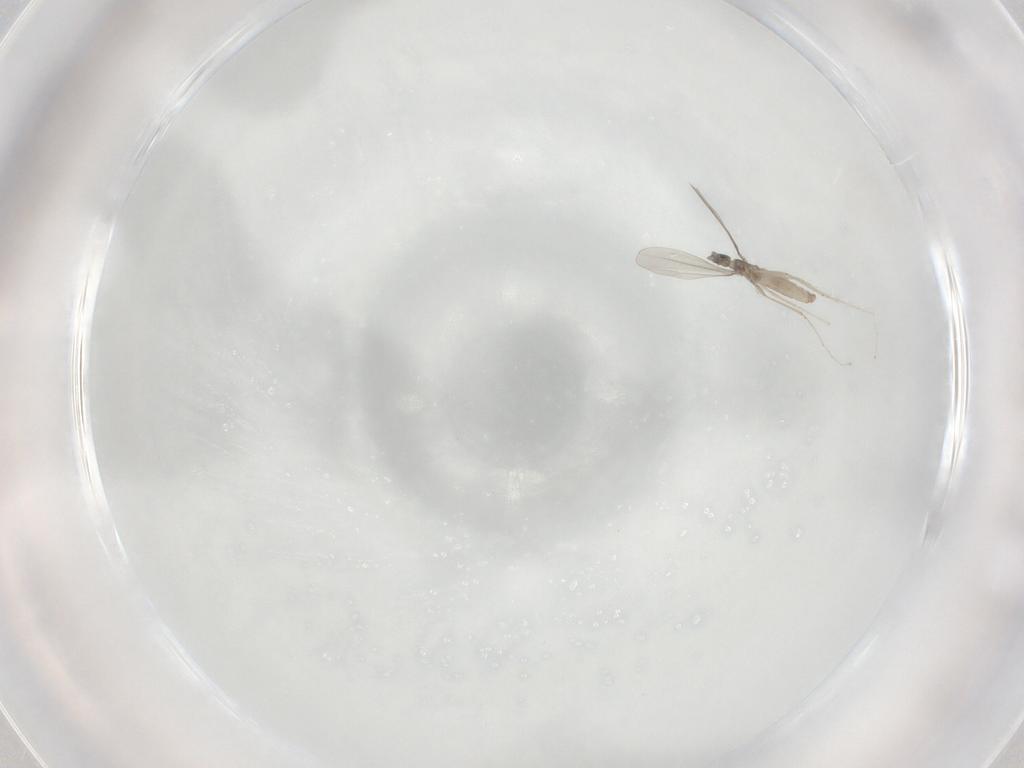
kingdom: Animalia
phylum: Arthropoda
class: Insecta
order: Diptera
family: Cecidomyiidae
